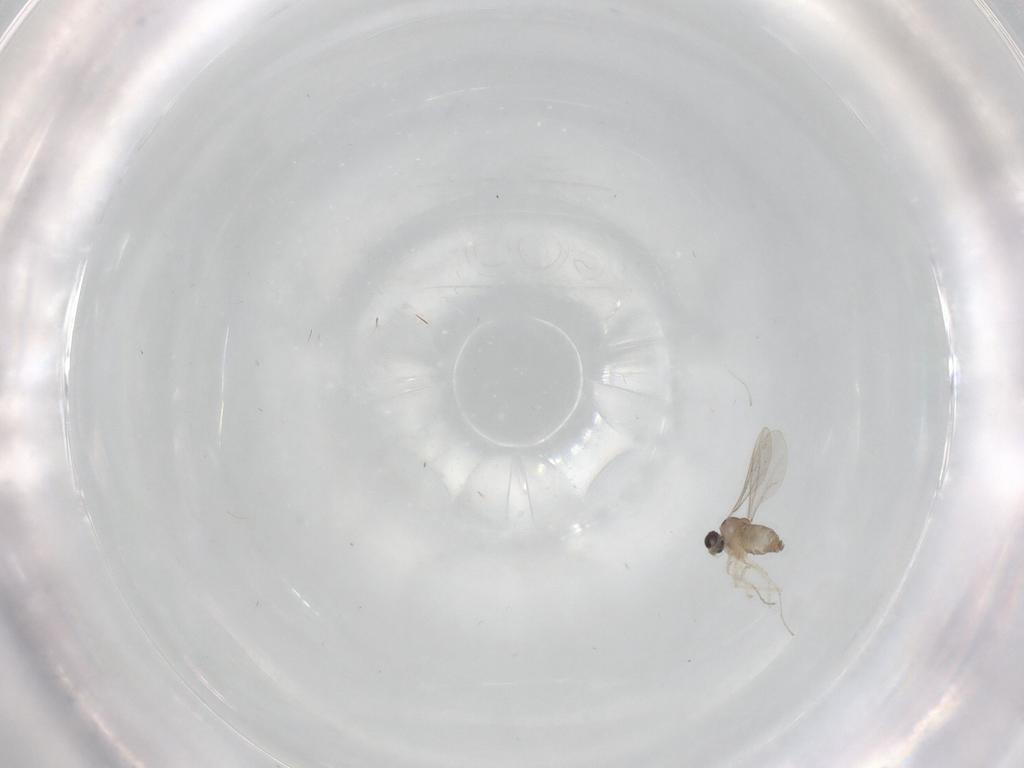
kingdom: Animalia
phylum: Arthropoda
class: Insecta
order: Diptera
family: Cecidomyiidae
